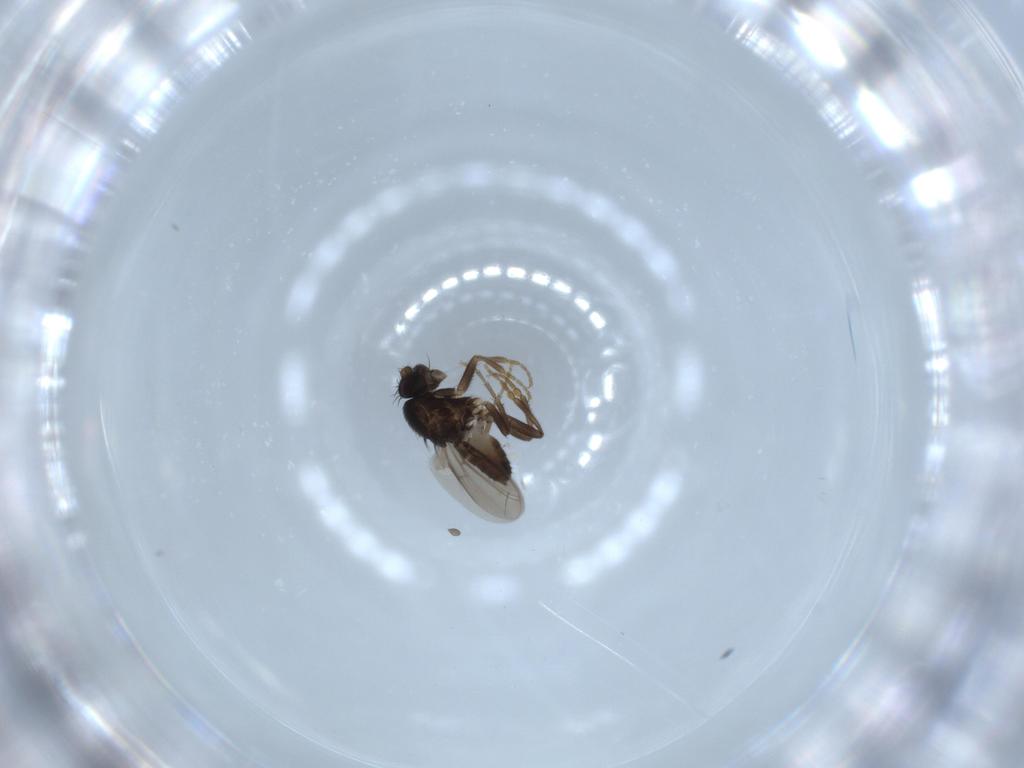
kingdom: Animalia
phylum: Arthropoda
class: Insecta
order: Diptera
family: Sphaeroceridae
